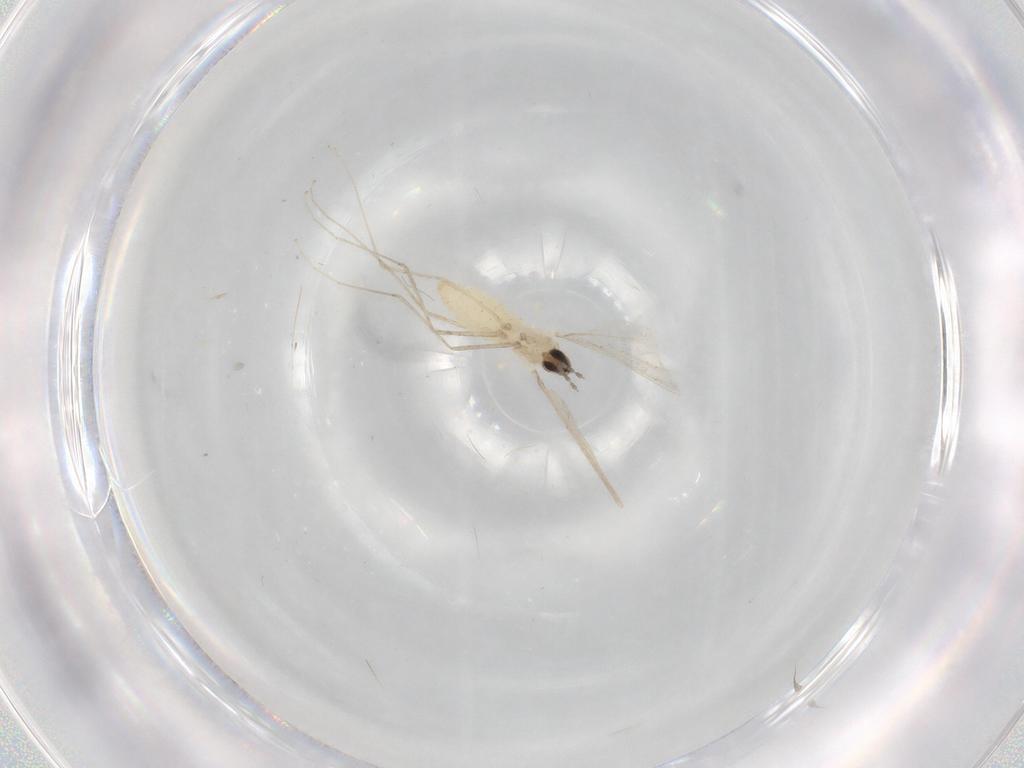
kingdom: Animalia
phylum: Arthropoda
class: Insecta
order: Diptera
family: Cecidomyiidae
